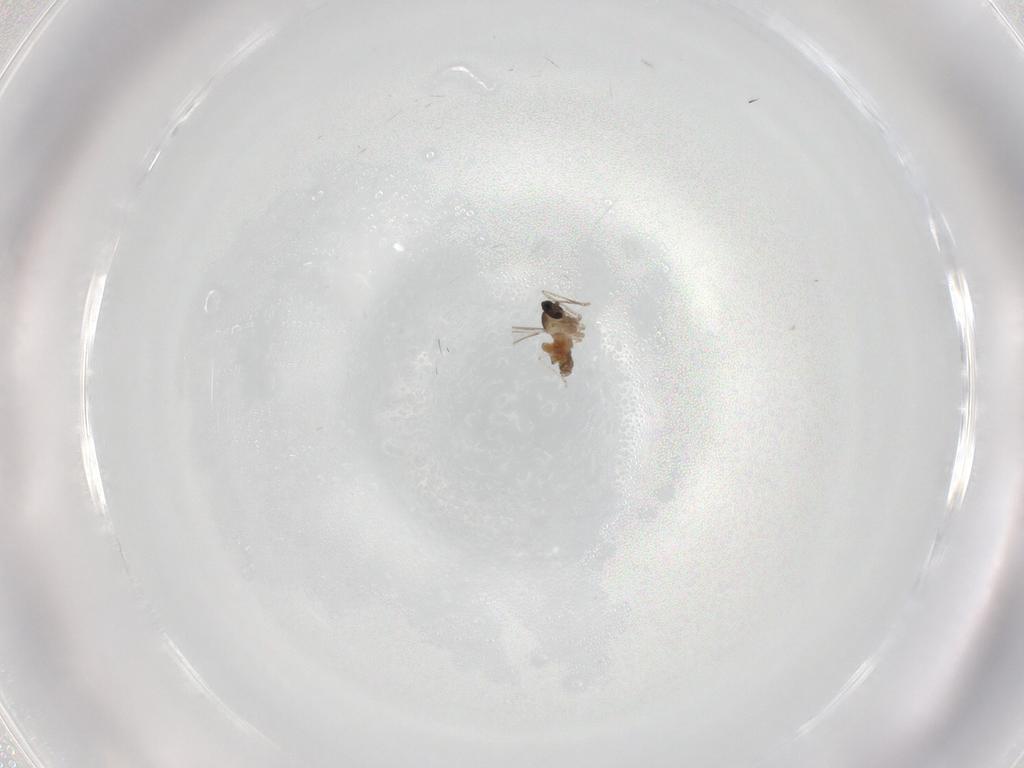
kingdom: Animalia
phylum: Arthropoda
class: Insecta
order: Diptera
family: Cecidomyiidae
